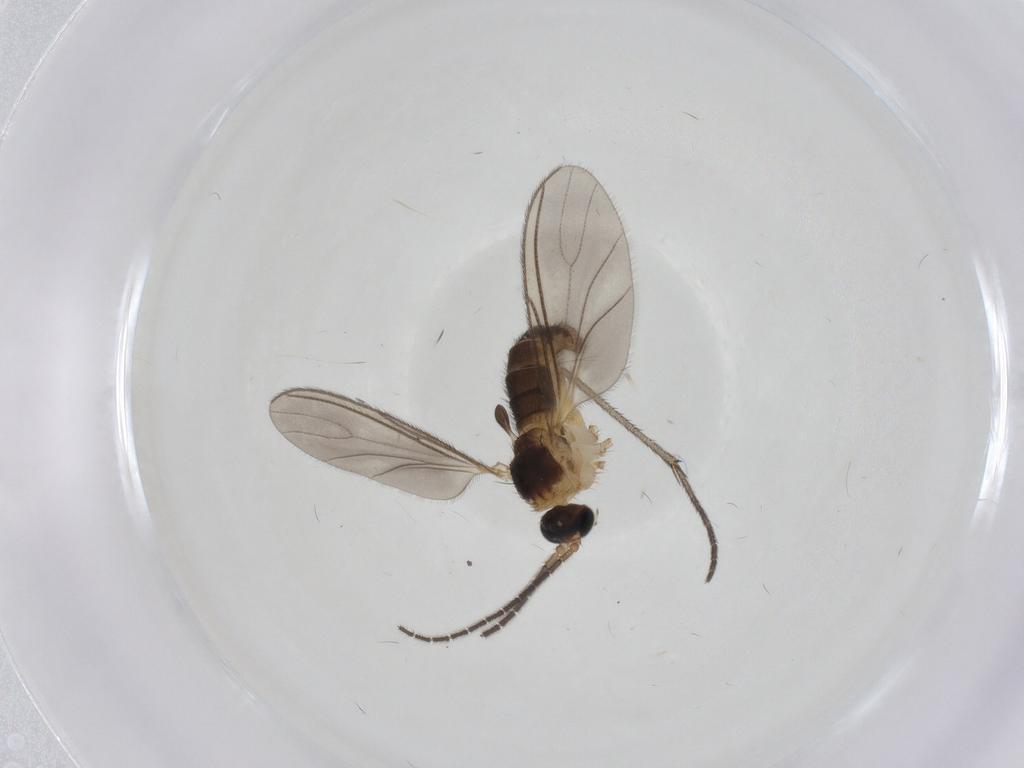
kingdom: Animalia
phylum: Arthropoda
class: Insecta
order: Diptera
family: Sciaridae
